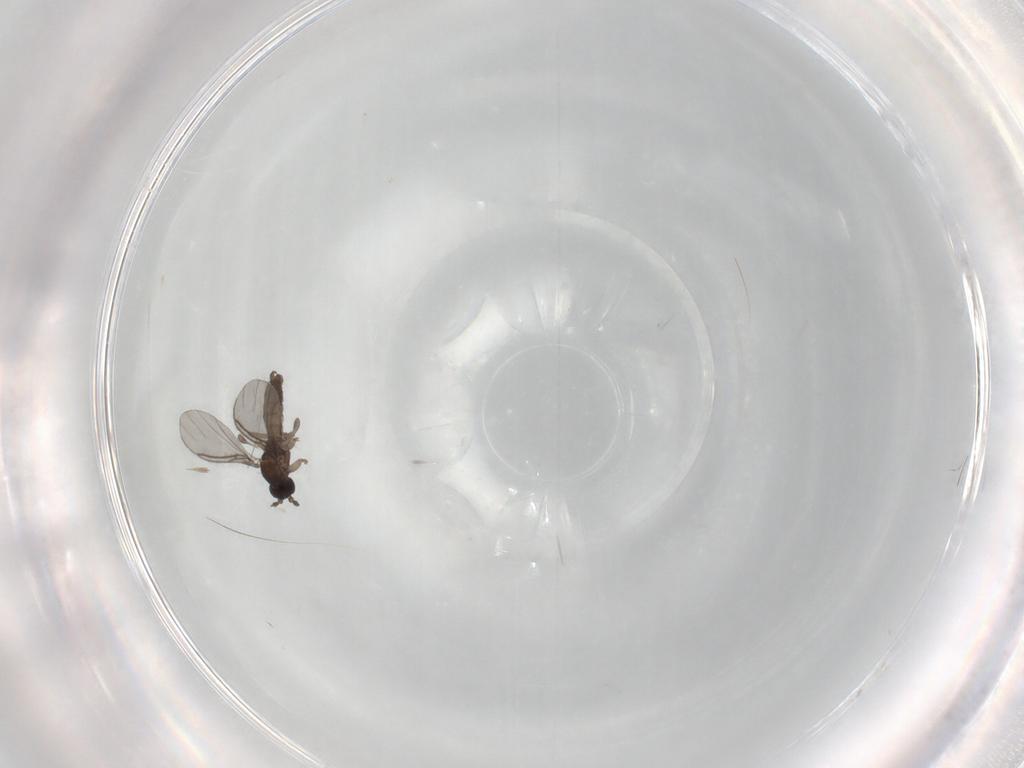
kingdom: Animalia
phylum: Arthropoda
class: Insecta
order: Diptera
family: Sciaridae
